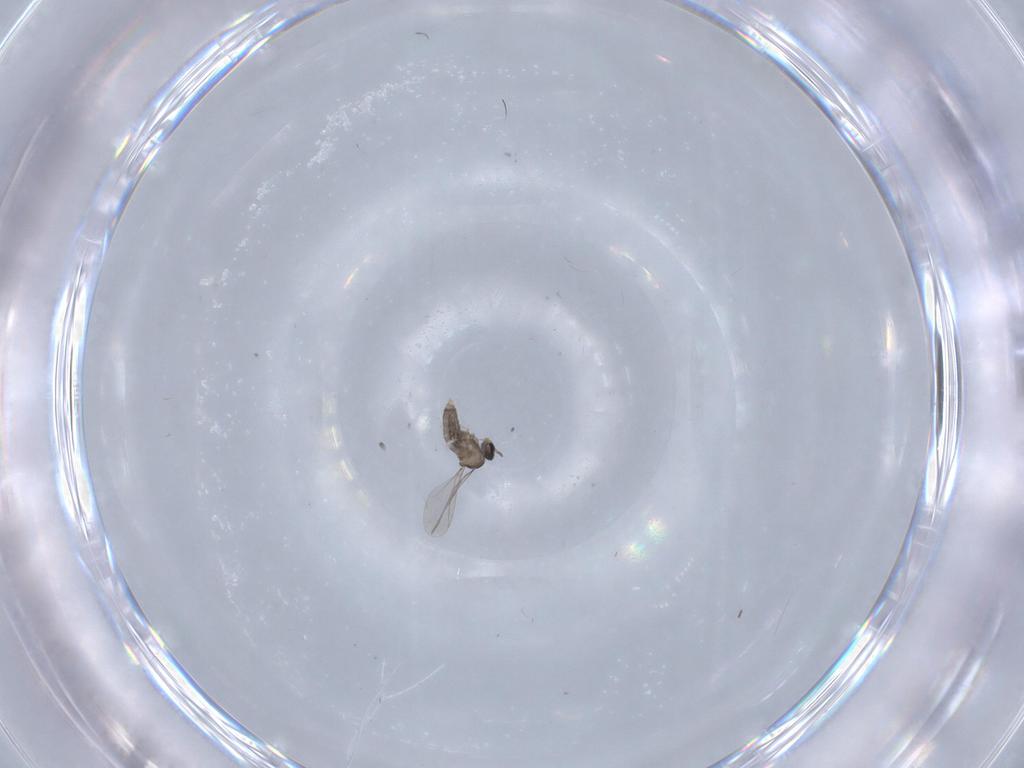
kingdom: Animalia
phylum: Arthropoda
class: Insecta
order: Diptera
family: Cecidomyiidae
